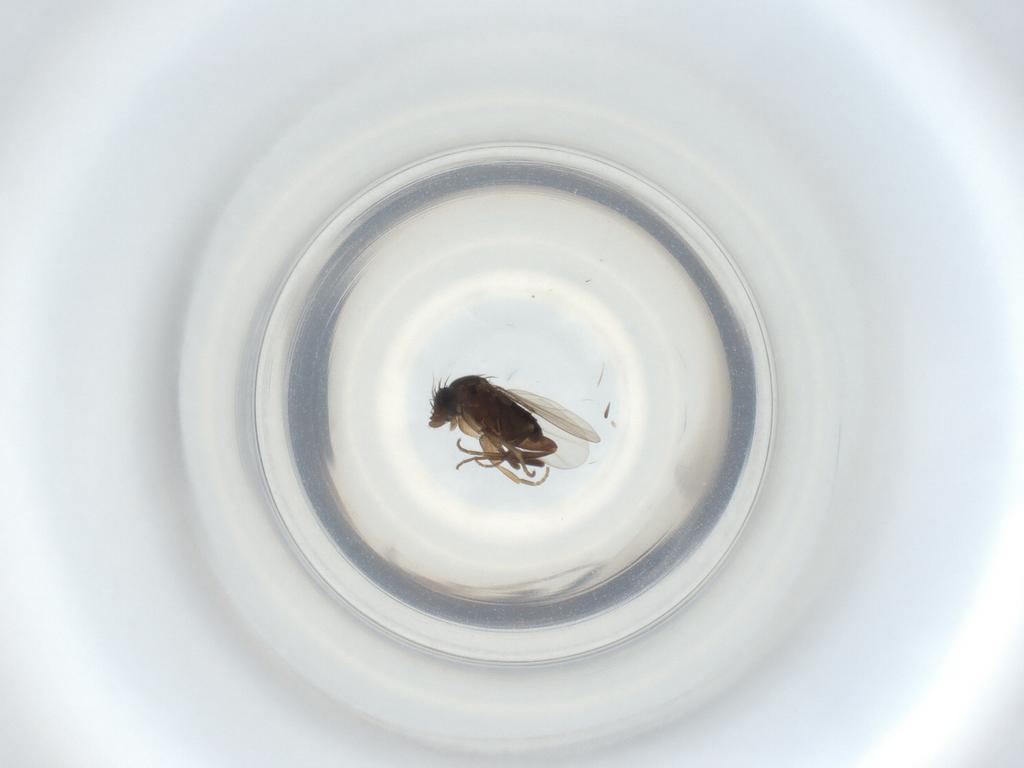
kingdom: Animalia
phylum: Arthropoda
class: Insecta
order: Diptera
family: Phoridae
